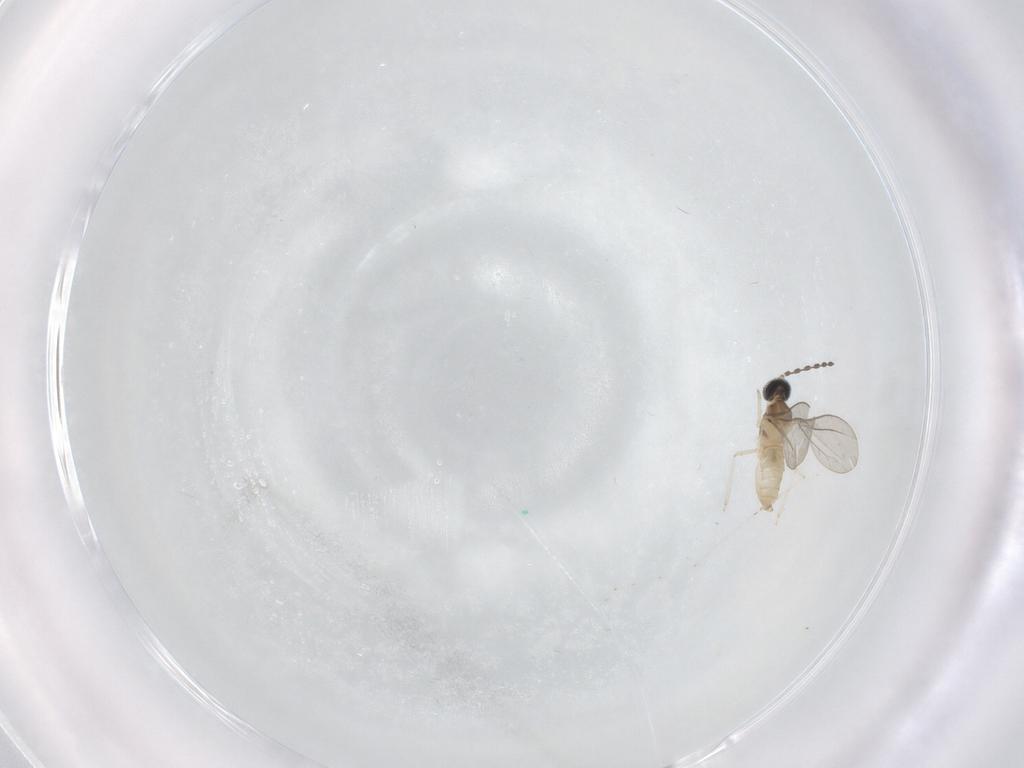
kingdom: Animalia
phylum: Arthropoda
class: Insecta
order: Diptera
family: Cecidomyiidae
